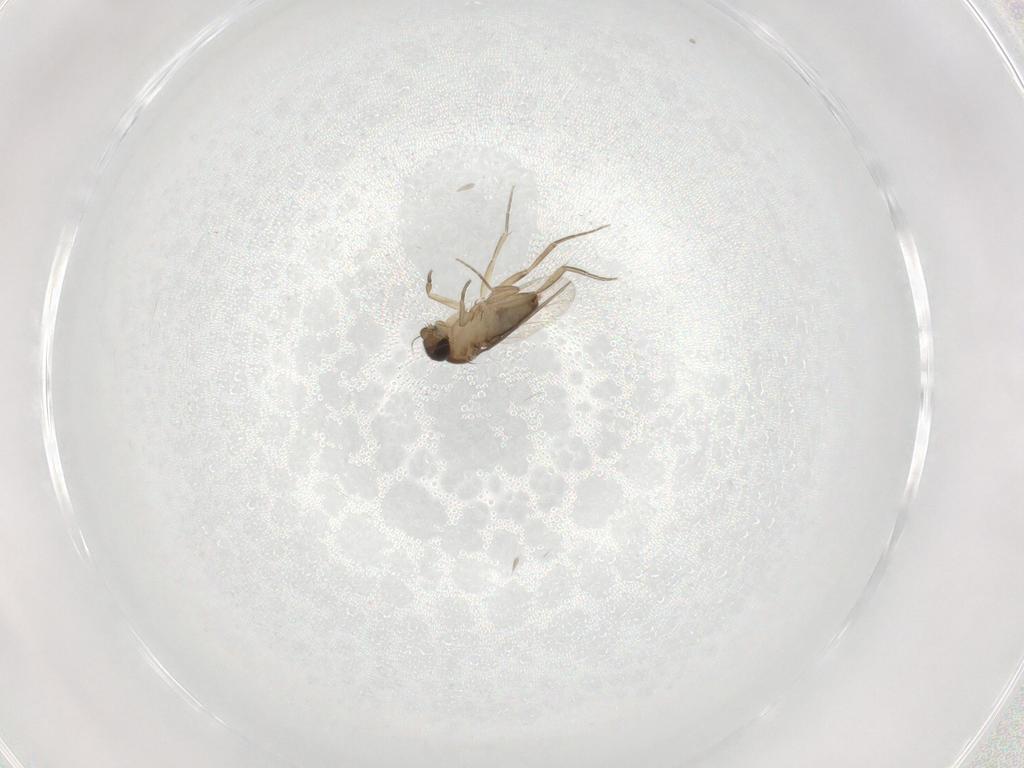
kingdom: Animalia
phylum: Arthropoda
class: Insecta
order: Diptera
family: Phoridae
